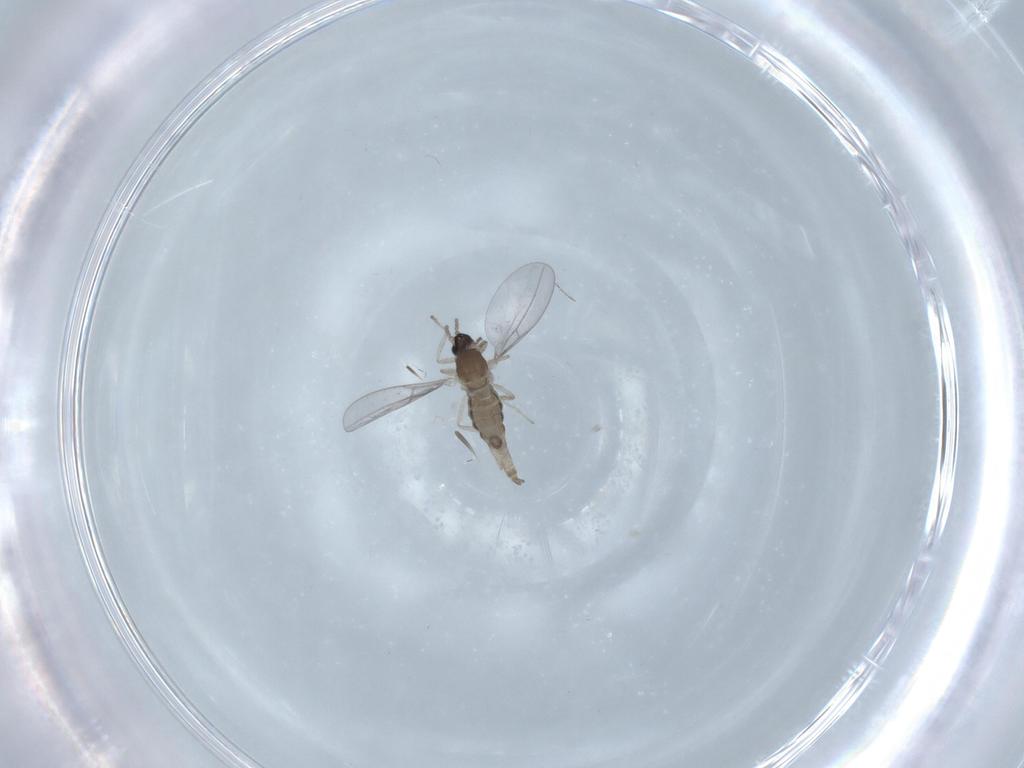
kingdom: Animalia
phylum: Arthropoda
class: Insecta
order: Diptera
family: Cecidomyiidae
